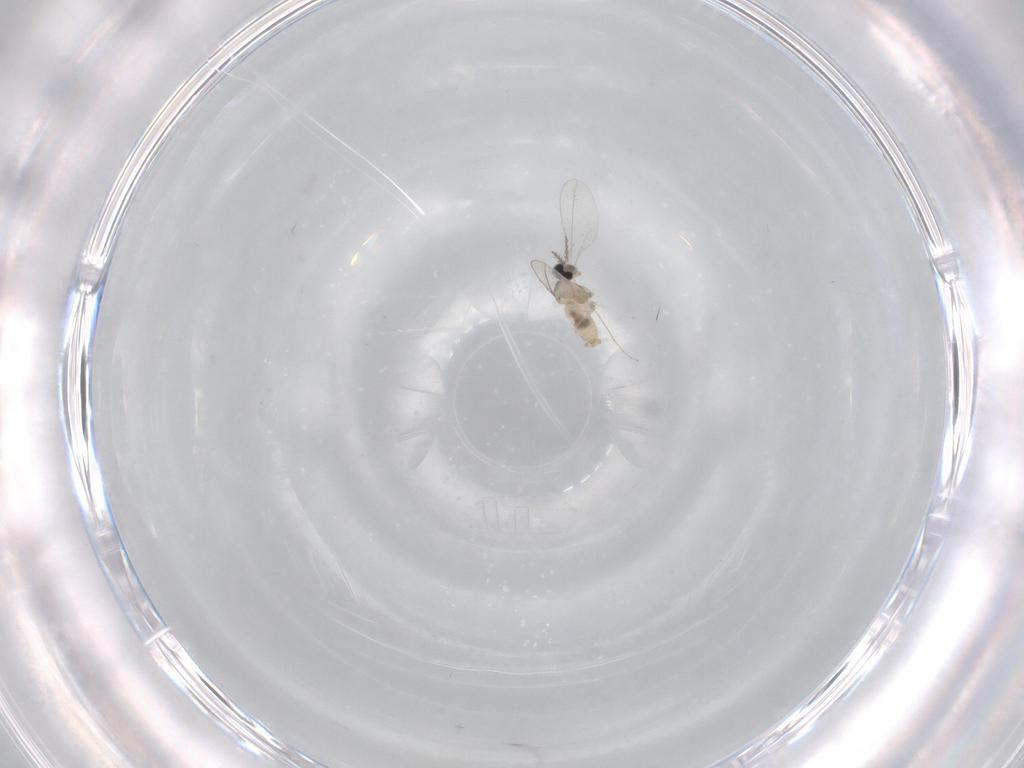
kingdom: Animalia
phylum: Arthropoda
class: Insecta
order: Diptera
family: Cecidomyiidae
